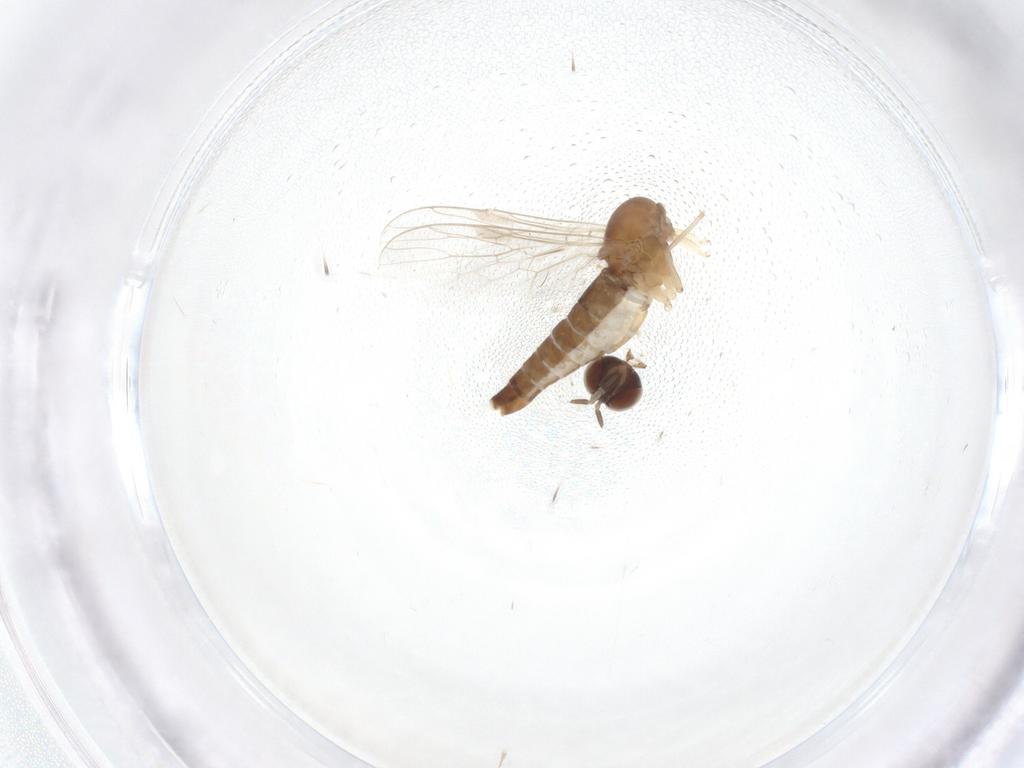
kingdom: Animalia
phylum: Arthropoda
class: Insecta
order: Diptera
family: Scenopinidae
